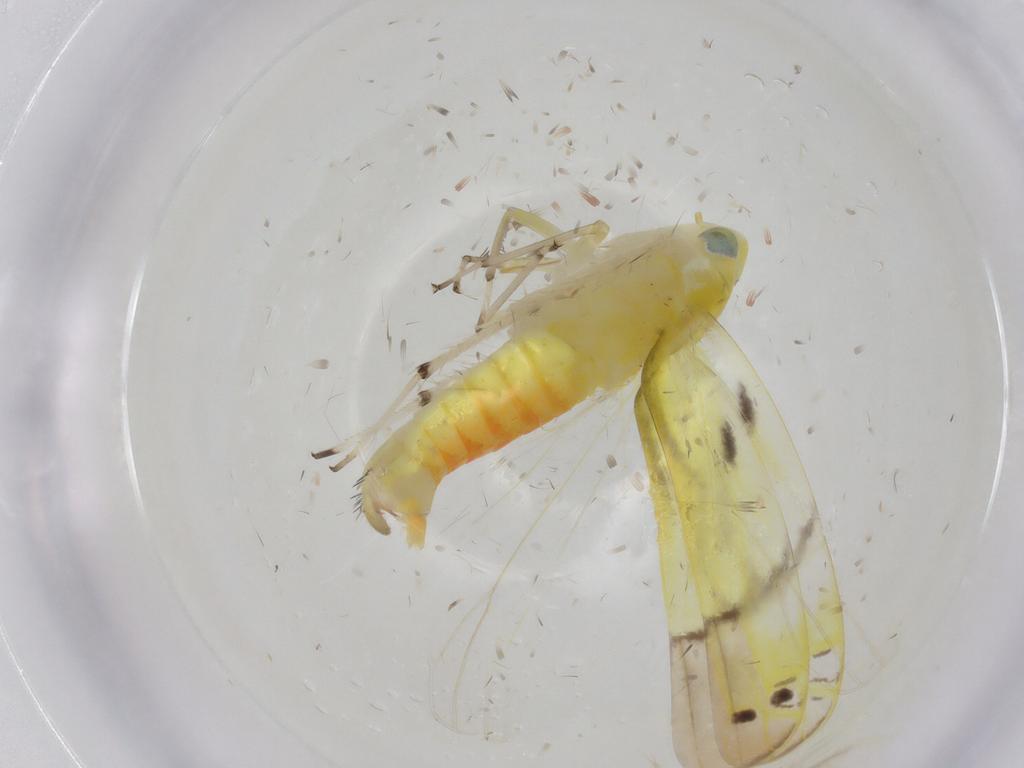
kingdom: Animalia
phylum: Arthropoda
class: Insecta
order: Hemiptera
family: Cicadellidae
